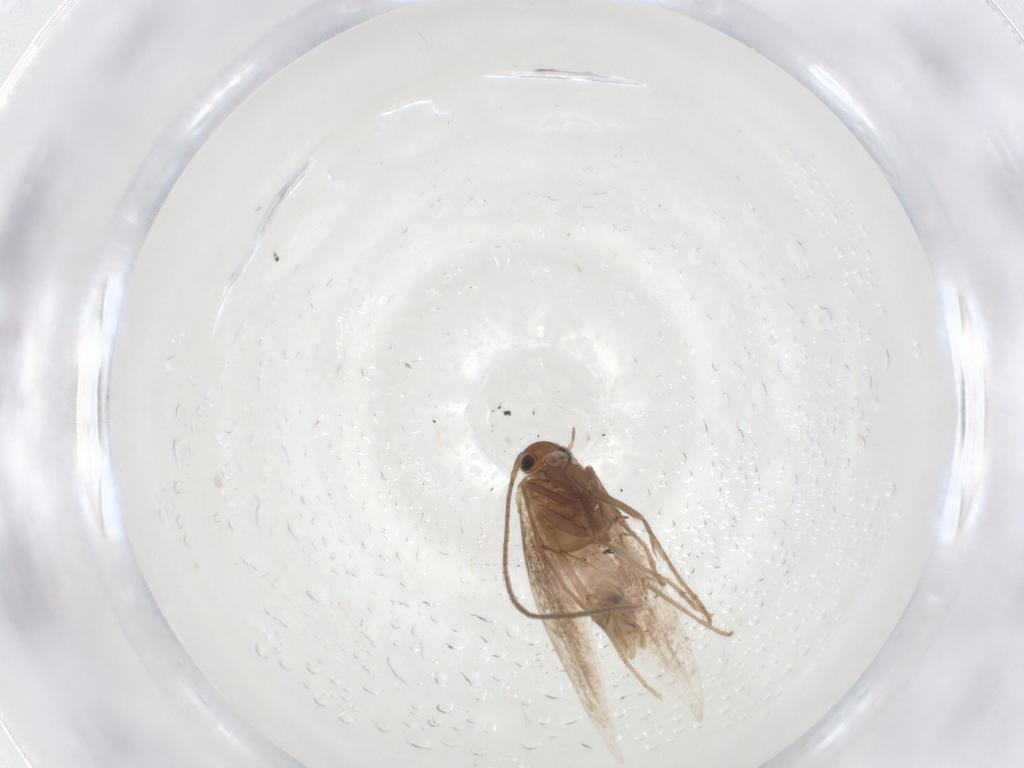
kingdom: Animalia
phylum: Arthropoda
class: Insecta
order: Lepidoptera
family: Gracillariidae
